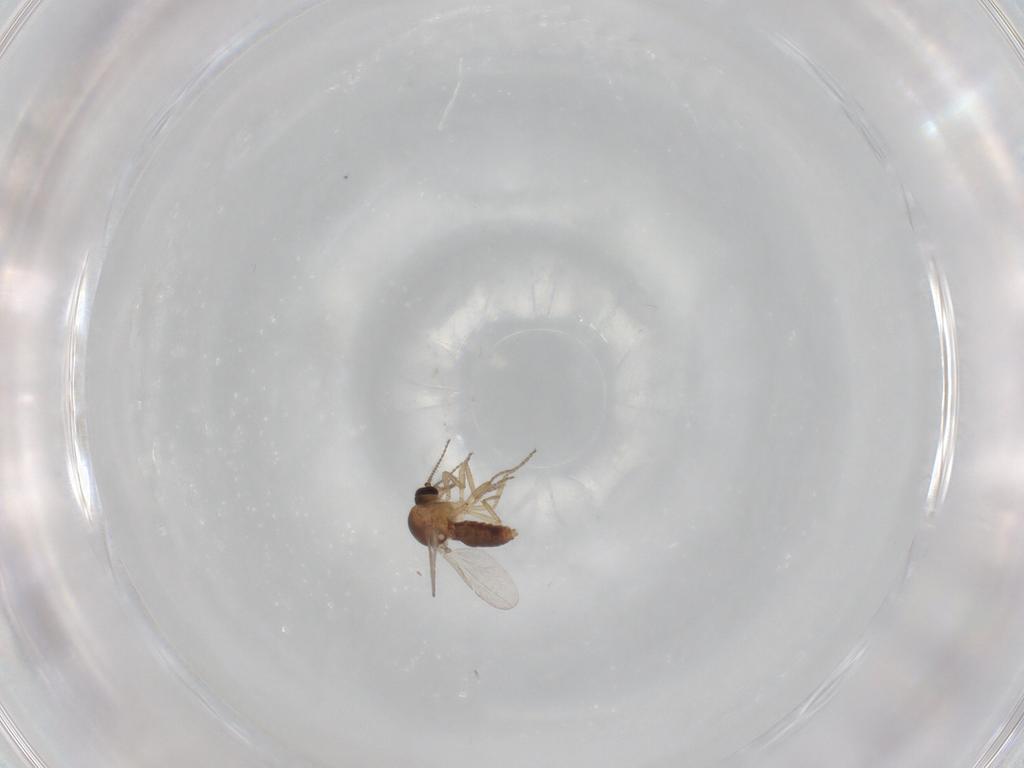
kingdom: Animalia
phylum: Arthropoda
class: Insecta
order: Diptera
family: Ceratopogonidae
